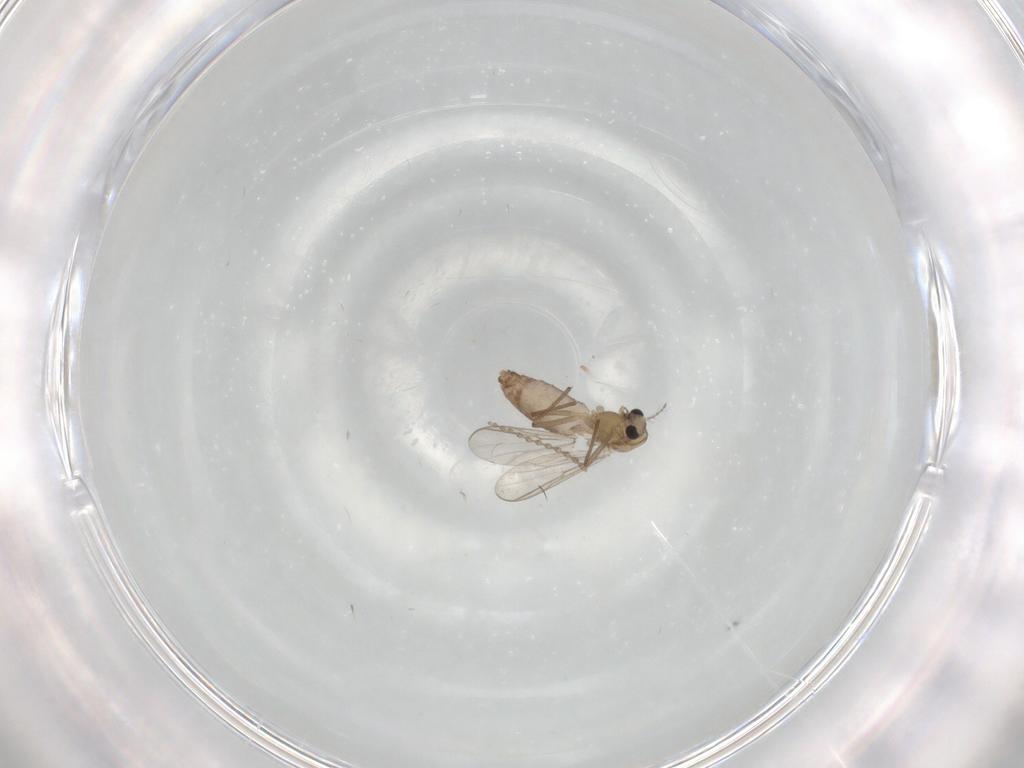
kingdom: Animalia
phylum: Arthropoda
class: Insecta
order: Diptera
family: Chironomidae
